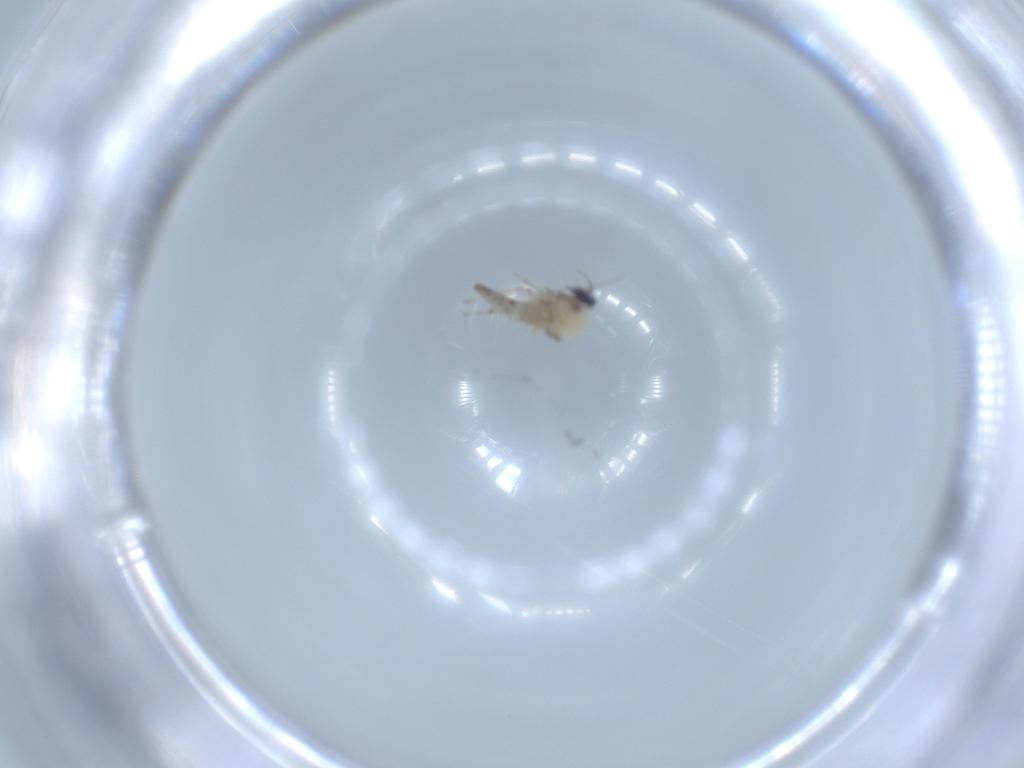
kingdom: Animalia
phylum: Arthropoda
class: Insecta
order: Diptera
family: Ceratopogonidae
